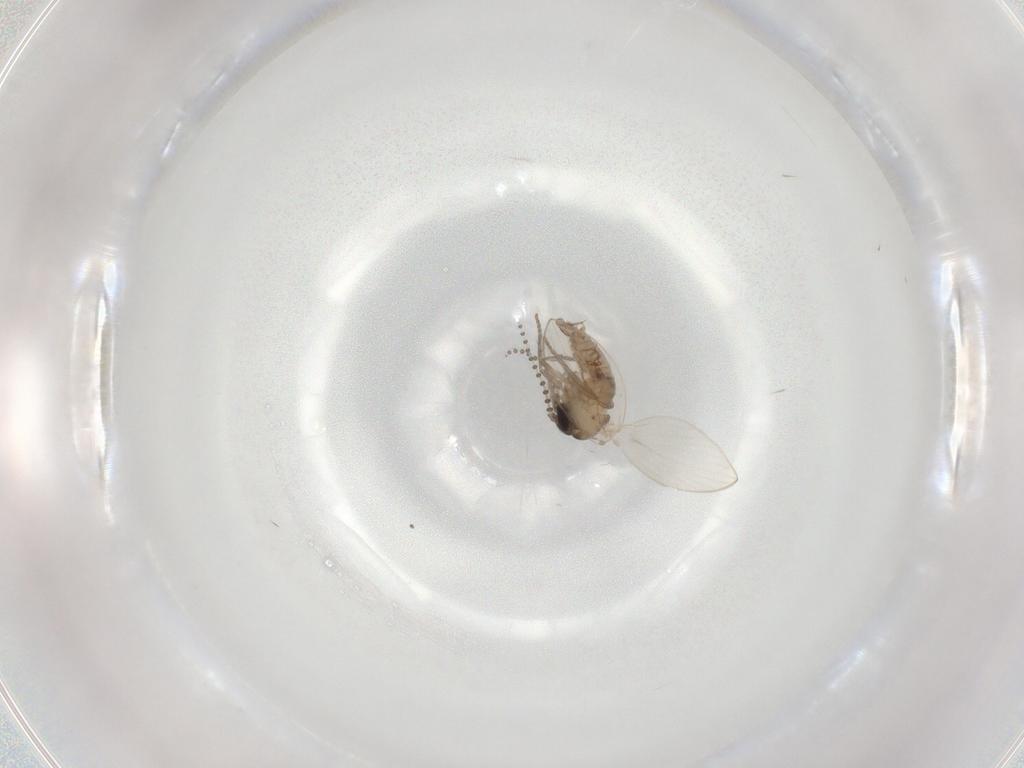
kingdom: Animalia
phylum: Arthropoda
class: Insecta
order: Diptera
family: Psychodidae
